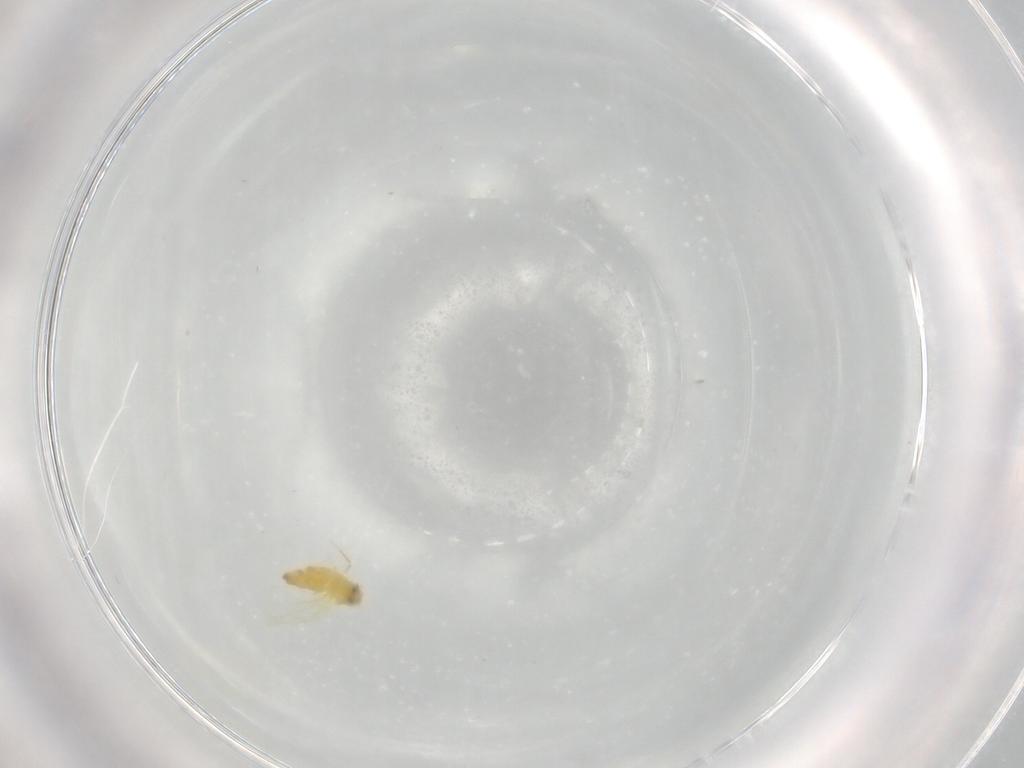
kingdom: Animalia
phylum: Arthropoda
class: Insecta
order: Hemiptera
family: Aleyrodidae
